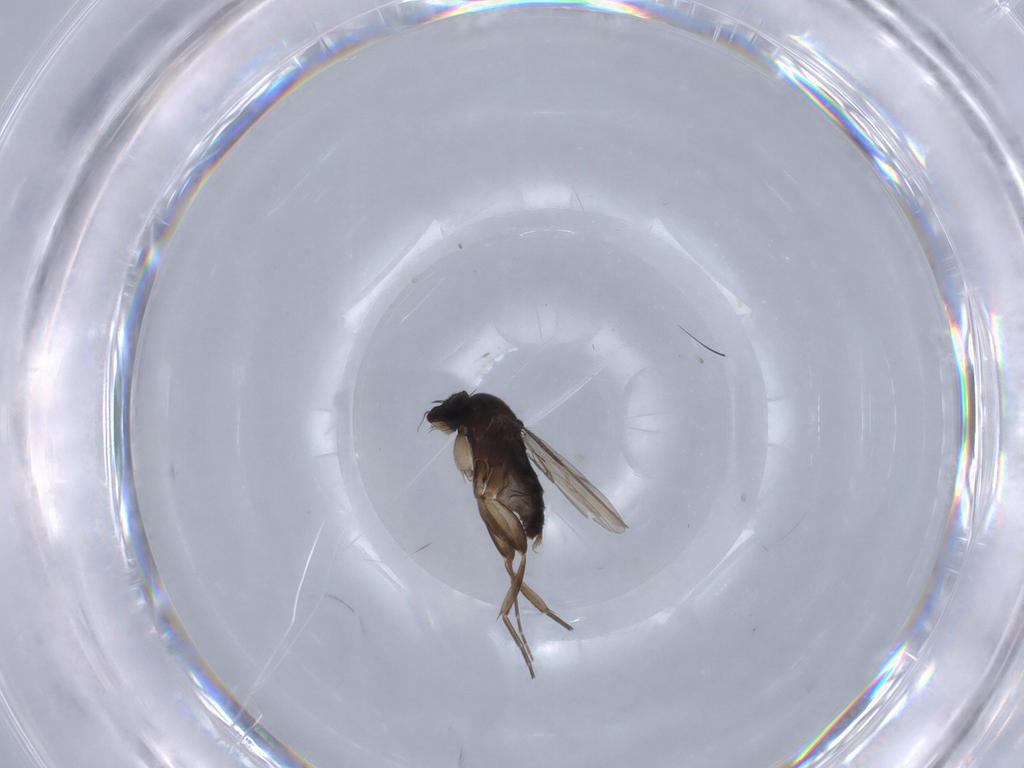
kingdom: Animalia
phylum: Arthropoda
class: Insecta
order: Diptera
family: Phoridae
